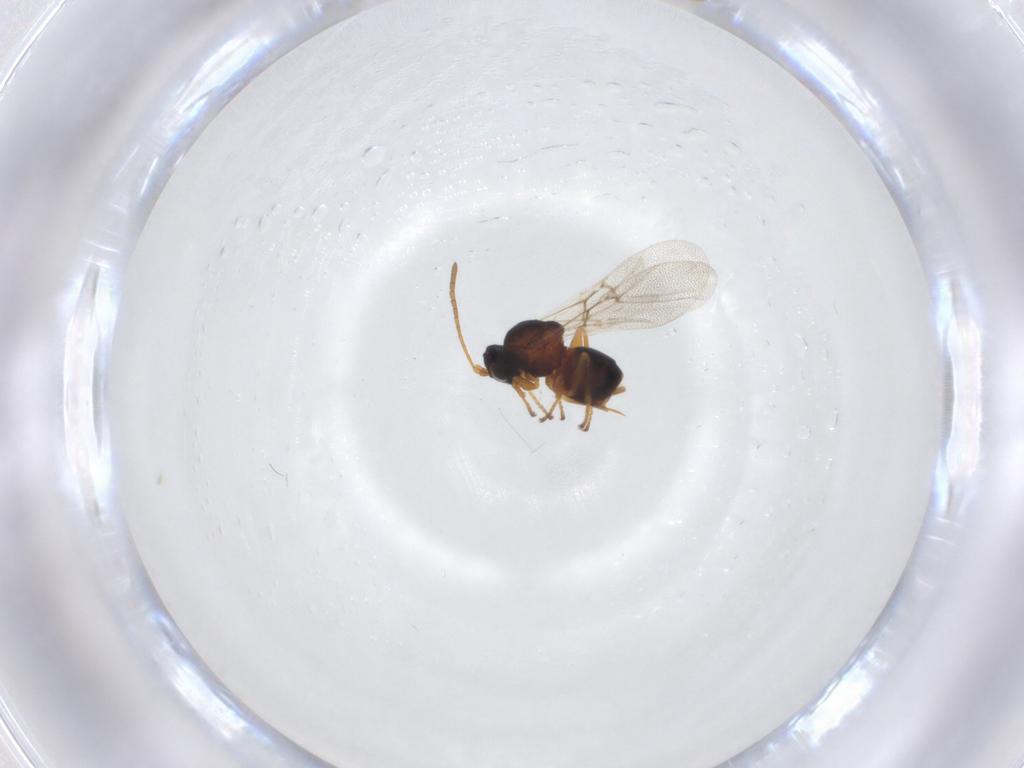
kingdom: Animalia
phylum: Arthropoda
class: Insecta
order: Hymenoptera
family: Cynipidae
